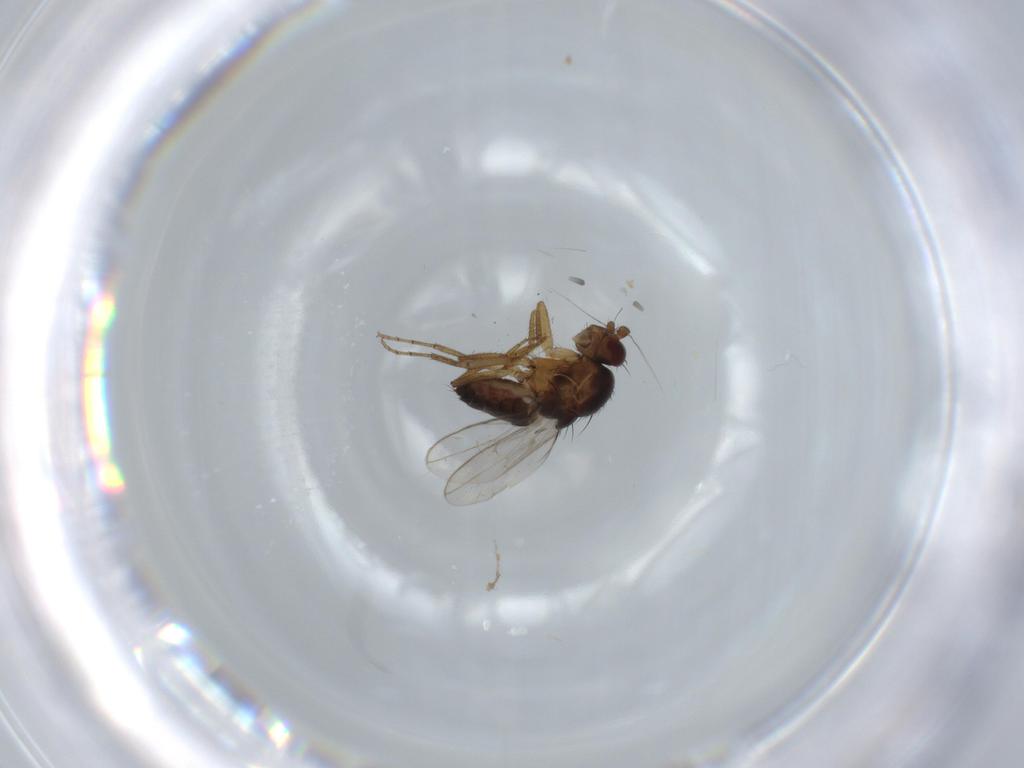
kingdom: Animalia
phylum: Arthropoda
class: Insecta
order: Diptera
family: Sphaeroceridae
